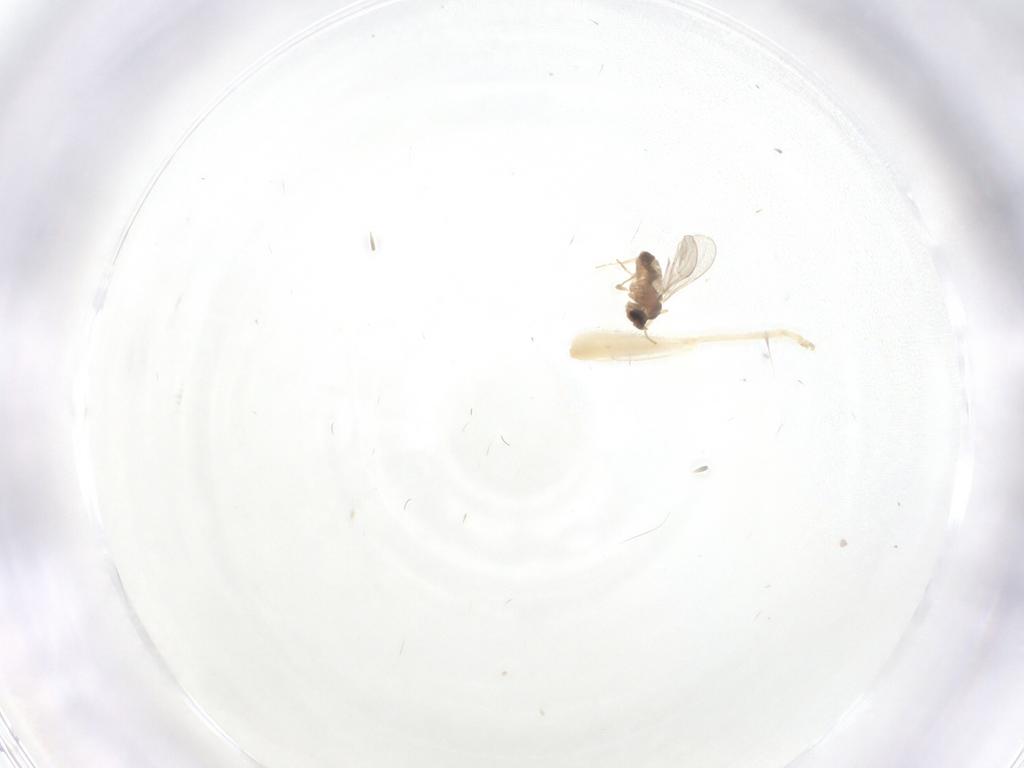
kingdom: Animalia
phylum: Arthropoda
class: Insecta
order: Diptera
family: Cecidomyiidae
